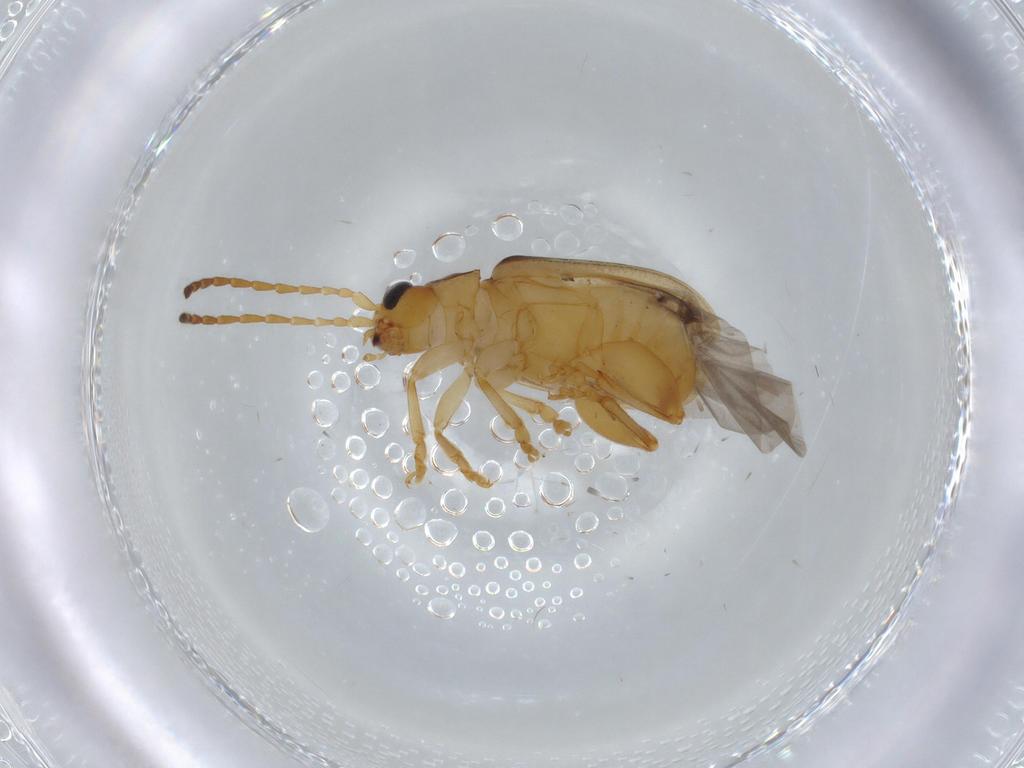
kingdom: Animalia
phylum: Arthropoda
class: Insecta
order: Coleoptera
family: Chrysomelidae
